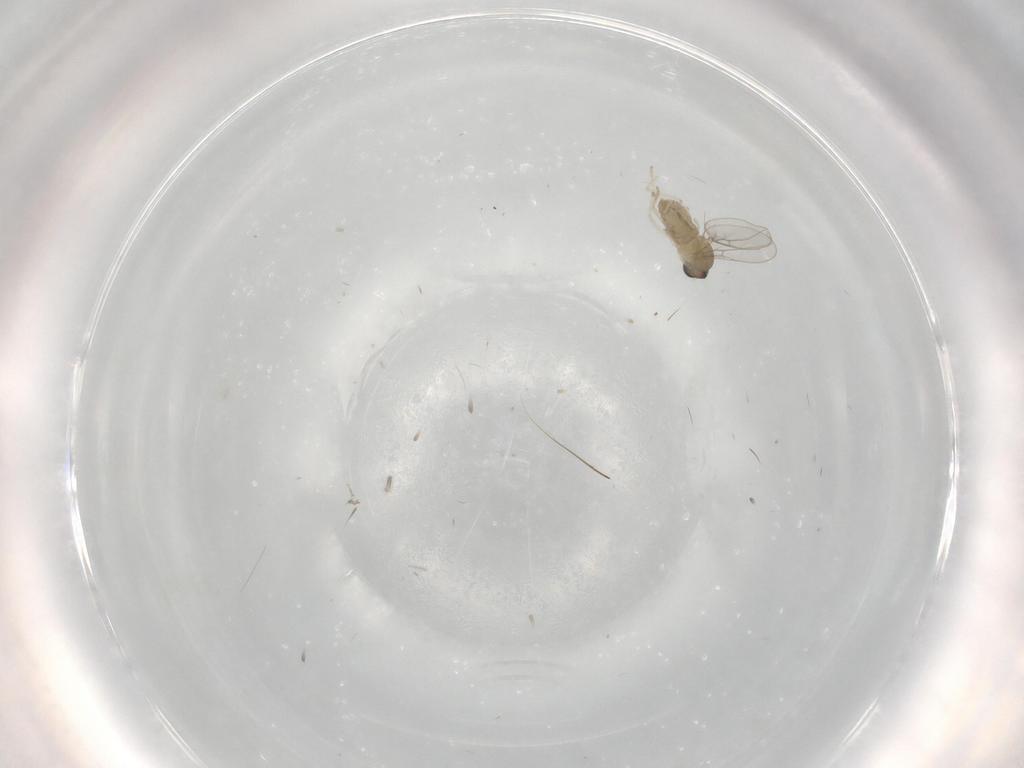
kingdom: Animalia
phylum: Arthropoda
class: Insecta
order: Diptera
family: Cecidomyiidae
